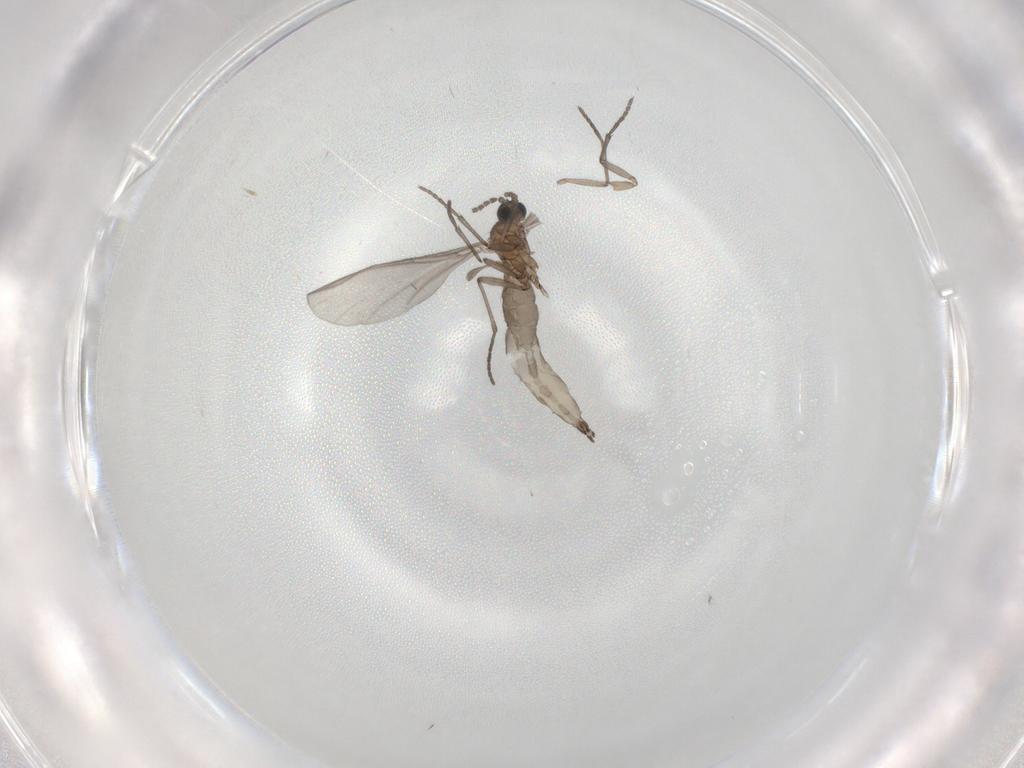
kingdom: Animalia
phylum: Arthropoda
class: Insecta
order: Diptera
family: Sciaridae
